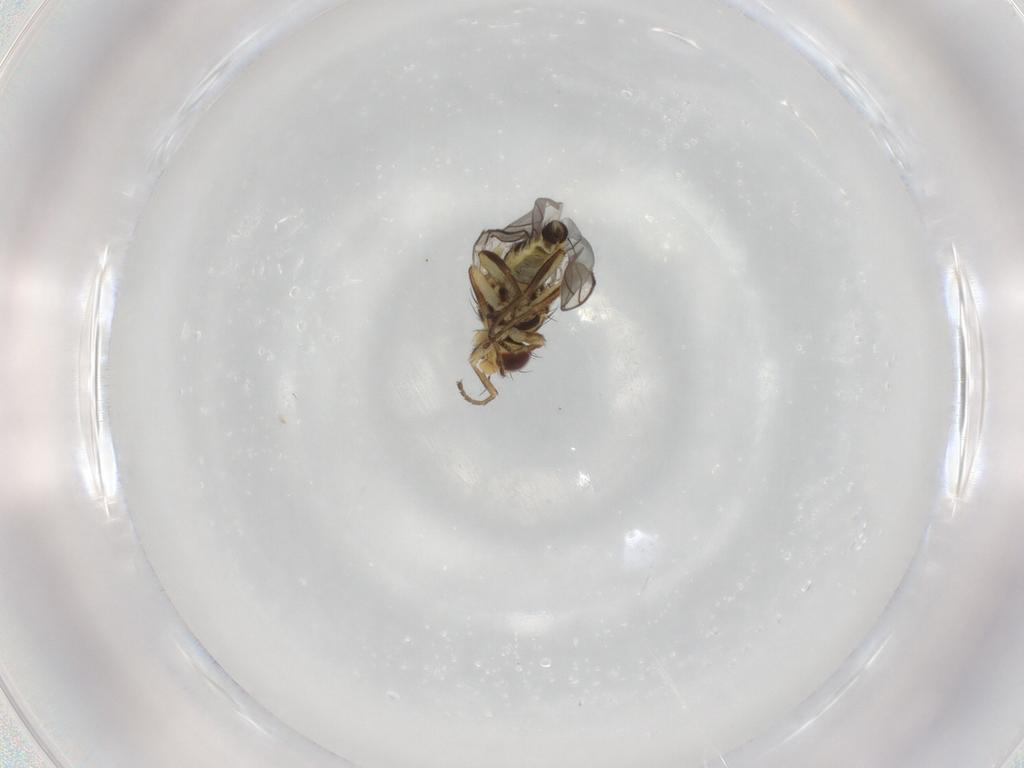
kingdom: Animalia
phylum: Arthropoda
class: Insecta
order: Diptera
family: Agromyzidae
